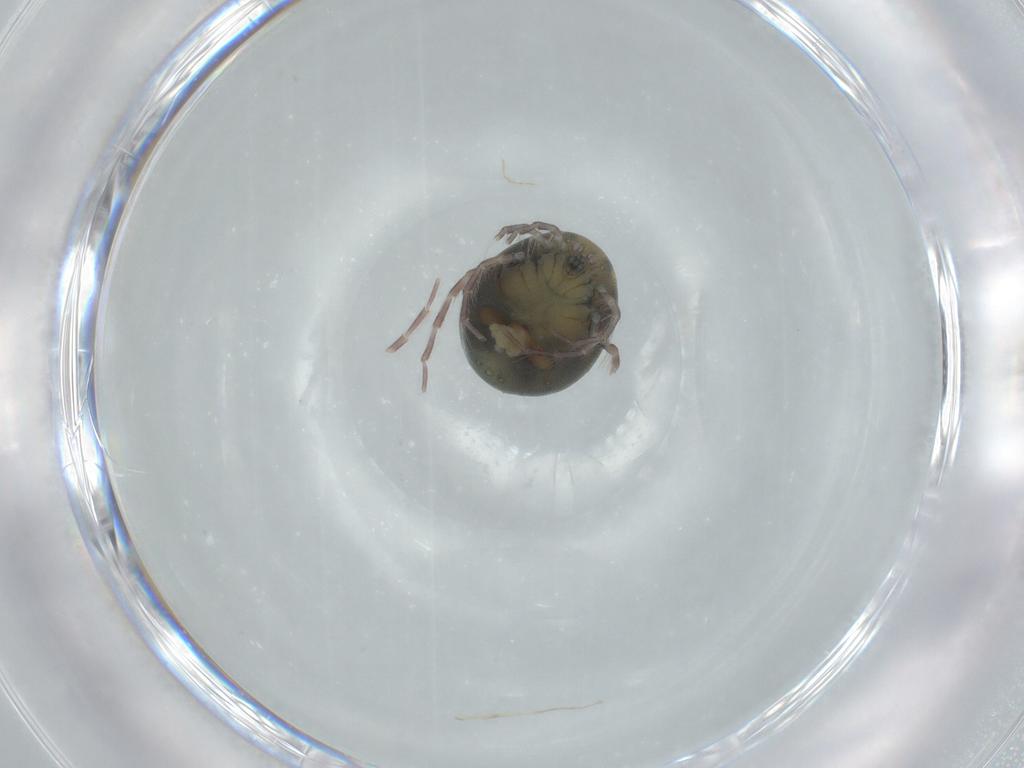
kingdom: Animalia
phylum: Arthropoda
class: Arachnida
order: Trombidiformes
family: Arrenuridae
